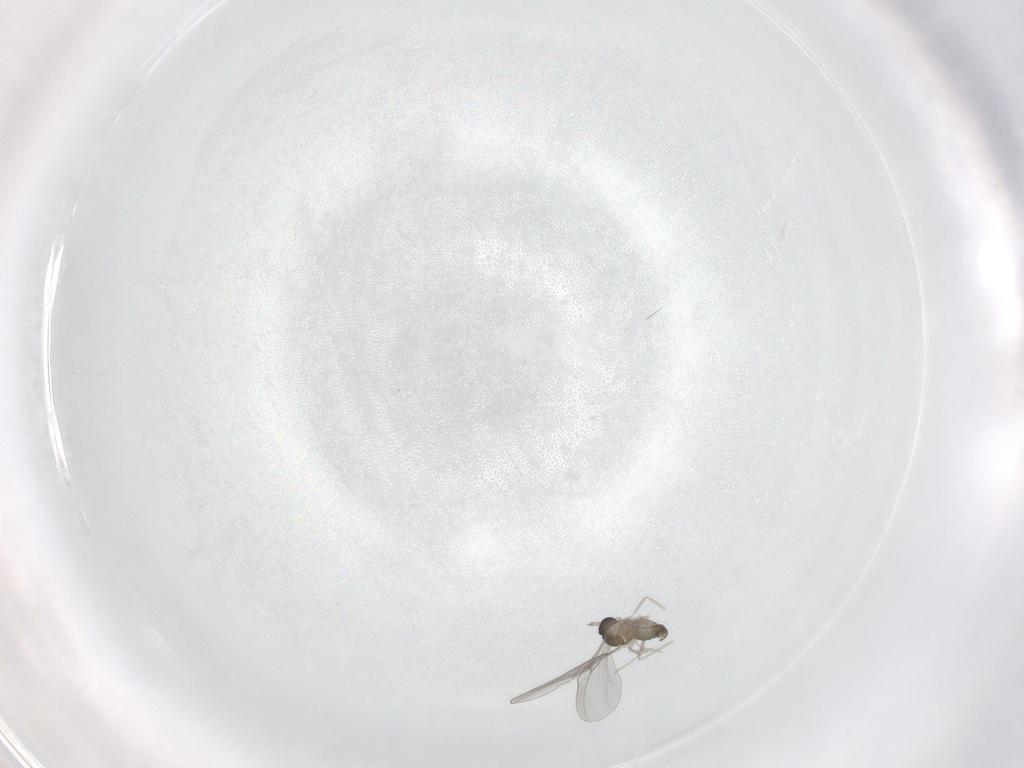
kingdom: Animalia
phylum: Arthropoda
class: Insecta
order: Diptera
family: Cecidomyiidae
